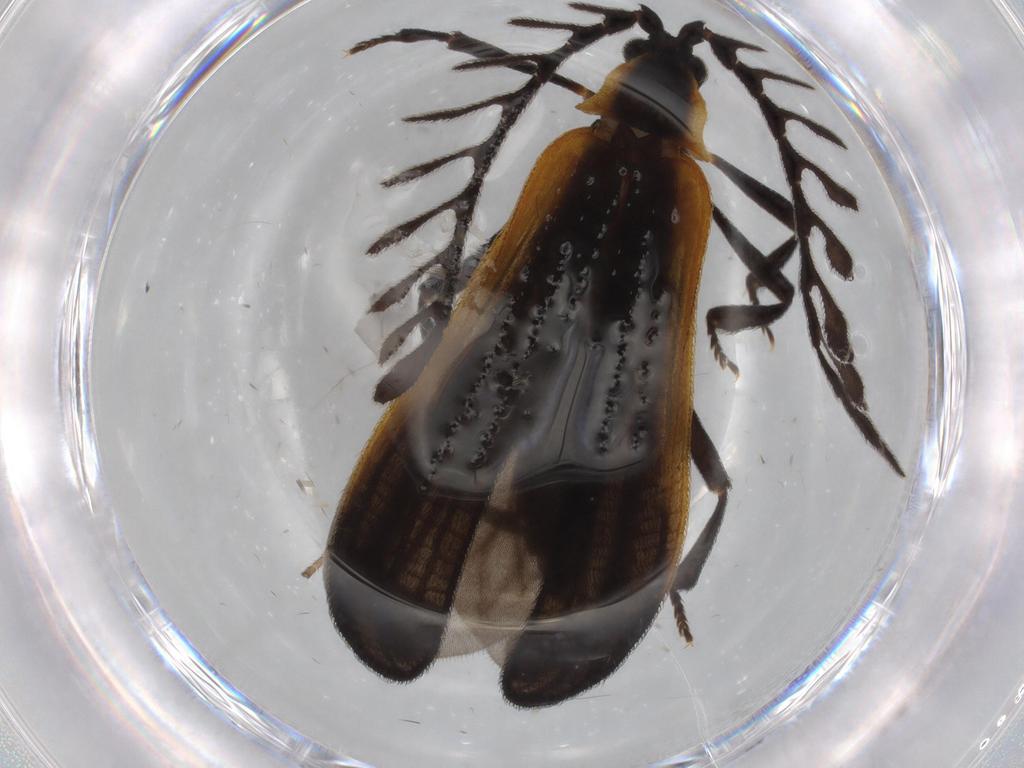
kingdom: Animalia
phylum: Arthropoda
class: Insecta
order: Coleoptera
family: Lycidae
